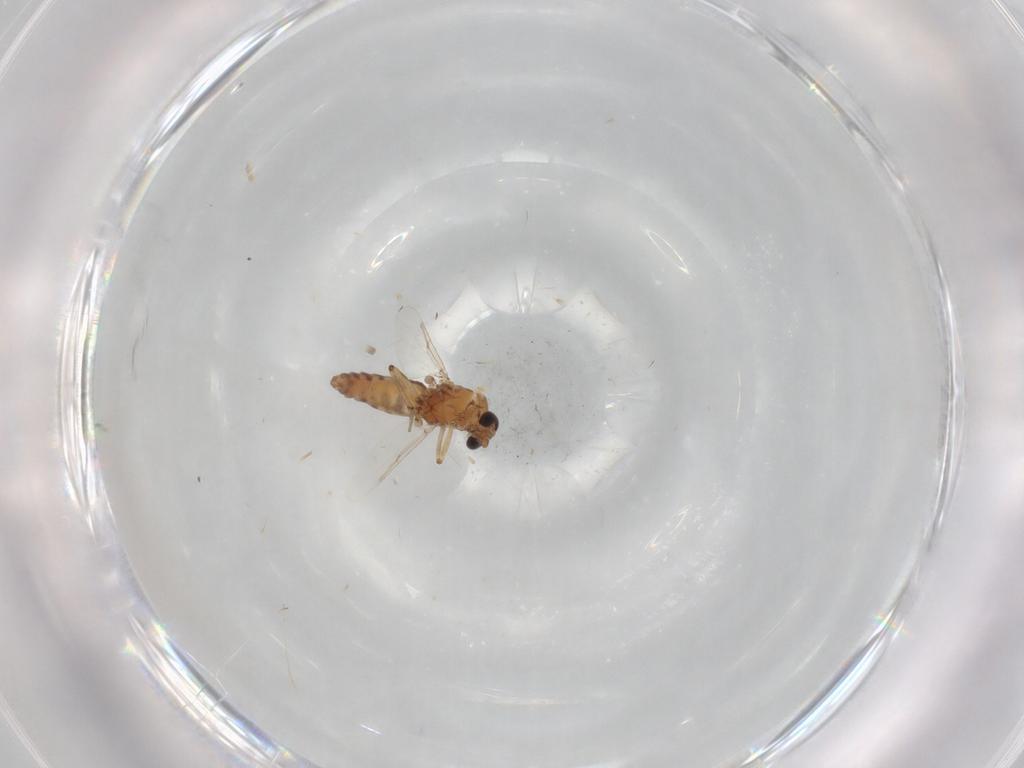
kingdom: Animalia
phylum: Arthropoda
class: Insecta
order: Diptera
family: Ceratopogonidae
